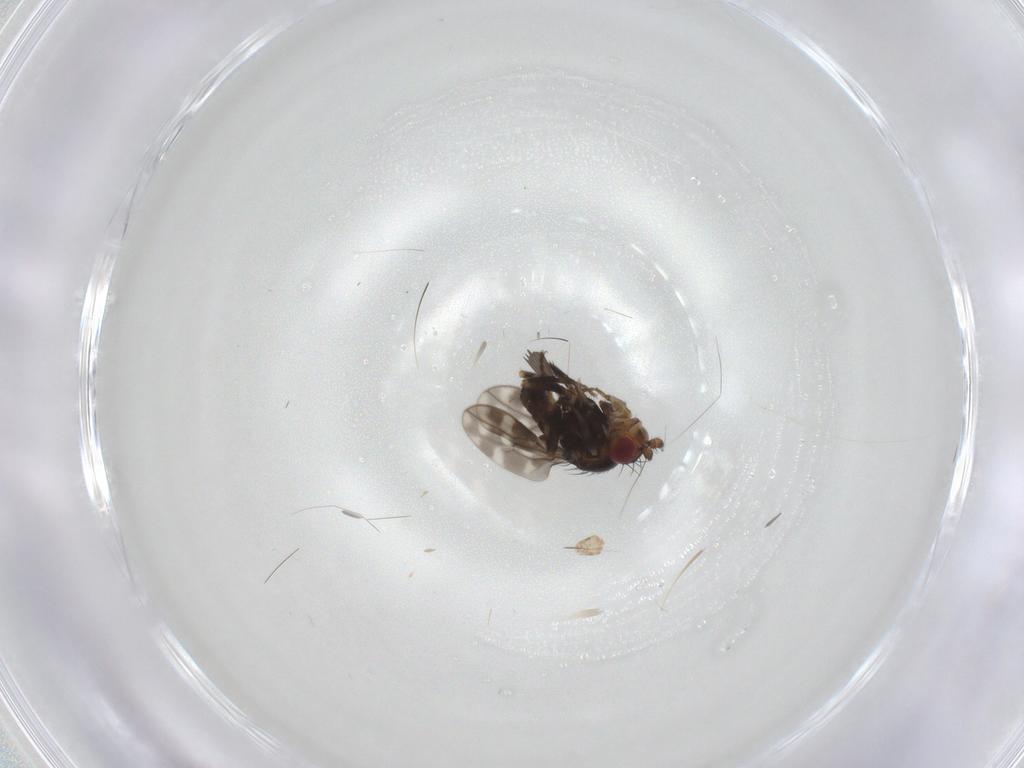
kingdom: Animalia
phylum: Arthropoda
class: Insecta
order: Diptera
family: Sphaeroceridae
